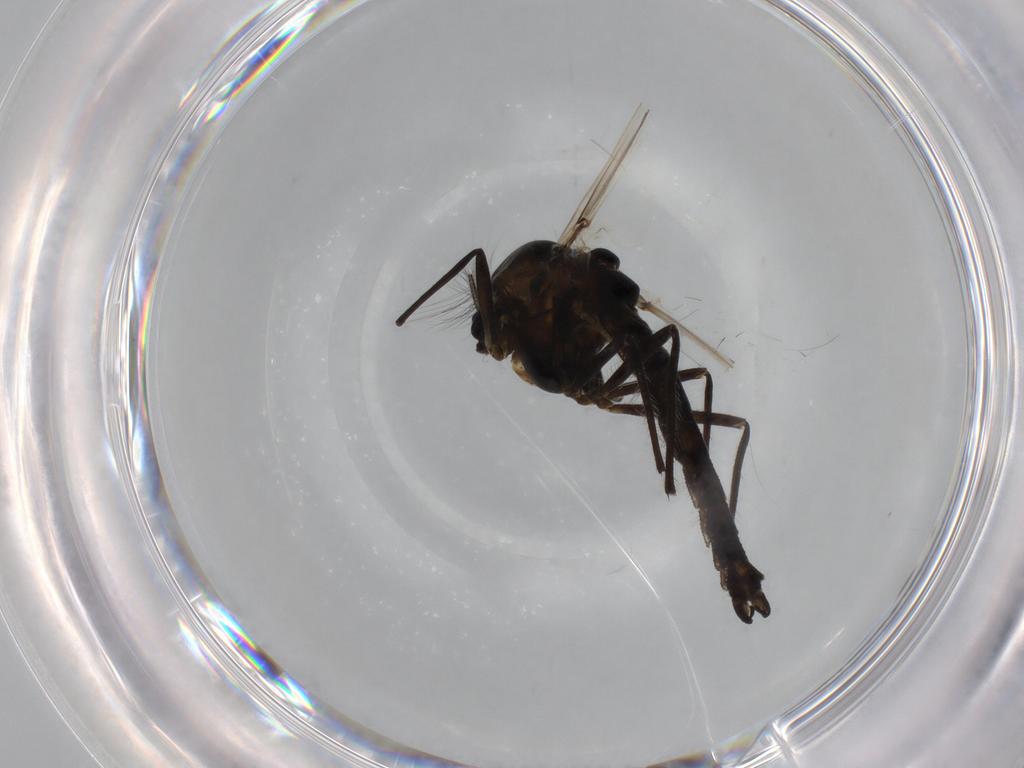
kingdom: Animalia
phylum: Arthropoda
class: Insecta
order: Diptera
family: Chironomidae
